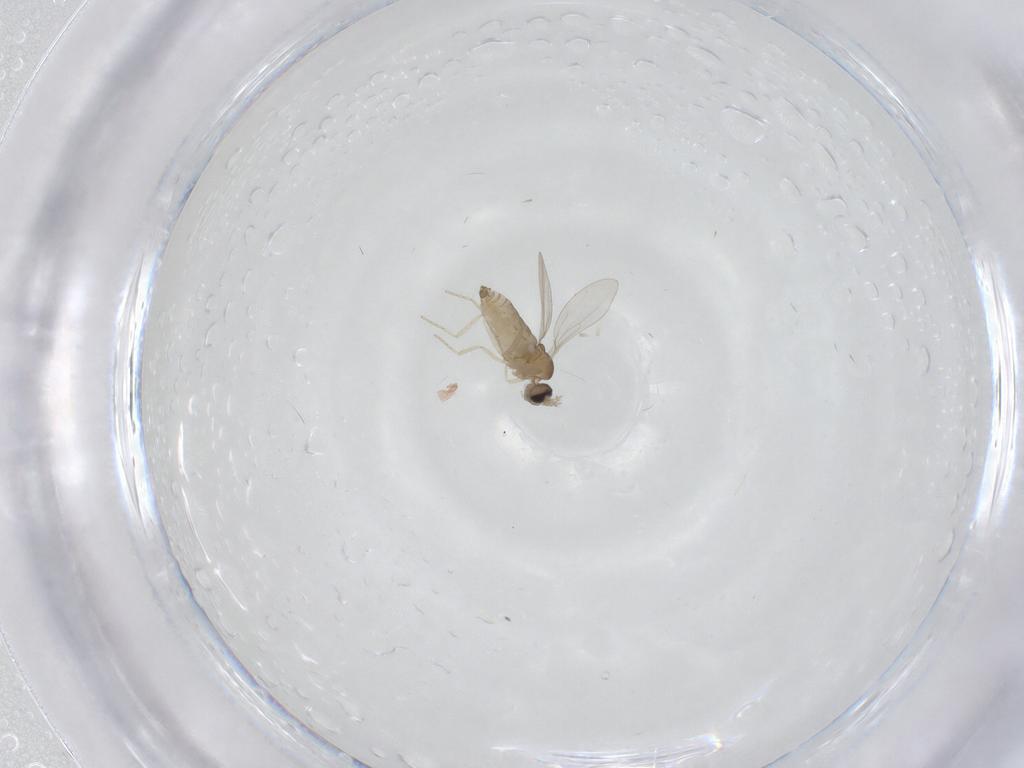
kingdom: Animalia
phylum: Arthropoda
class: Insecta
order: Diptera
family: Cecidomyiidae
